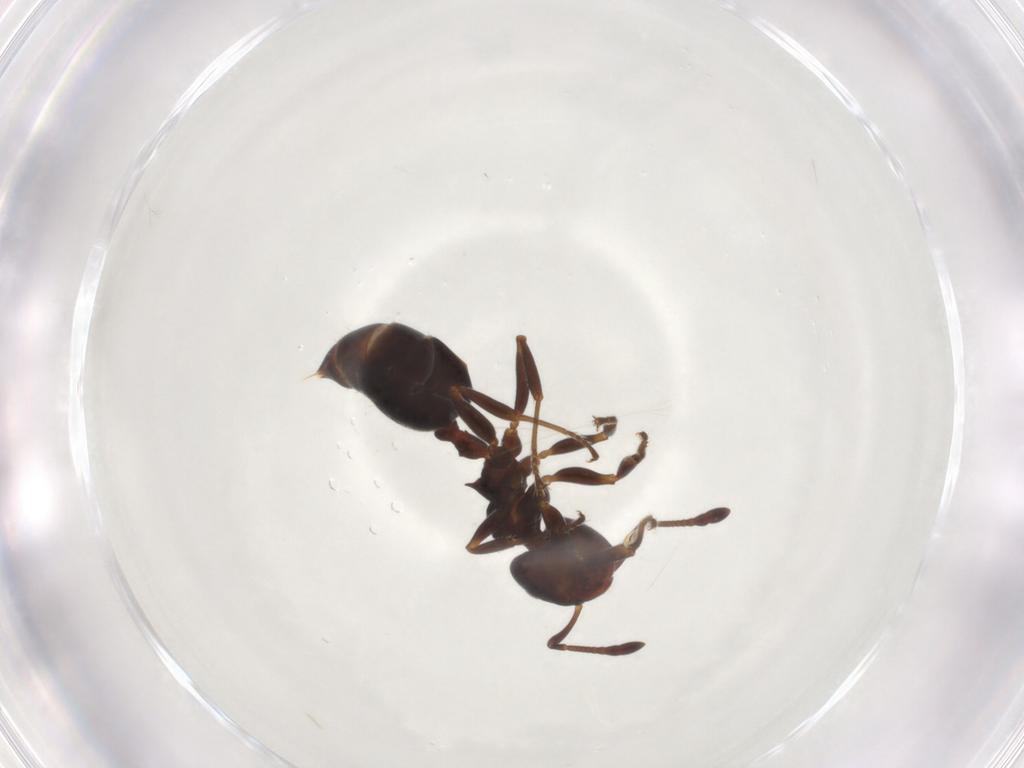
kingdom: Animalia
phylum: Arthropoda
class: Insecta
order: Hymenoptera
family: Formicidae
